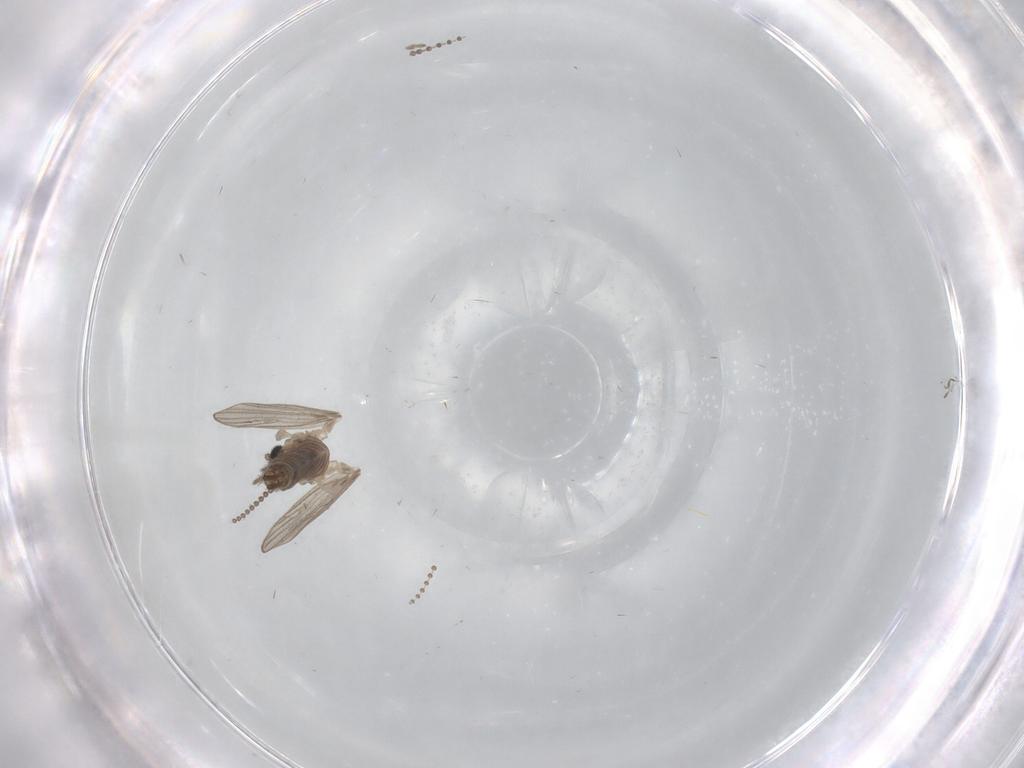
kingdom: Animalia
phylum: Arthropoda
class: Insecta
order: Diptera
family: Psychodidae
